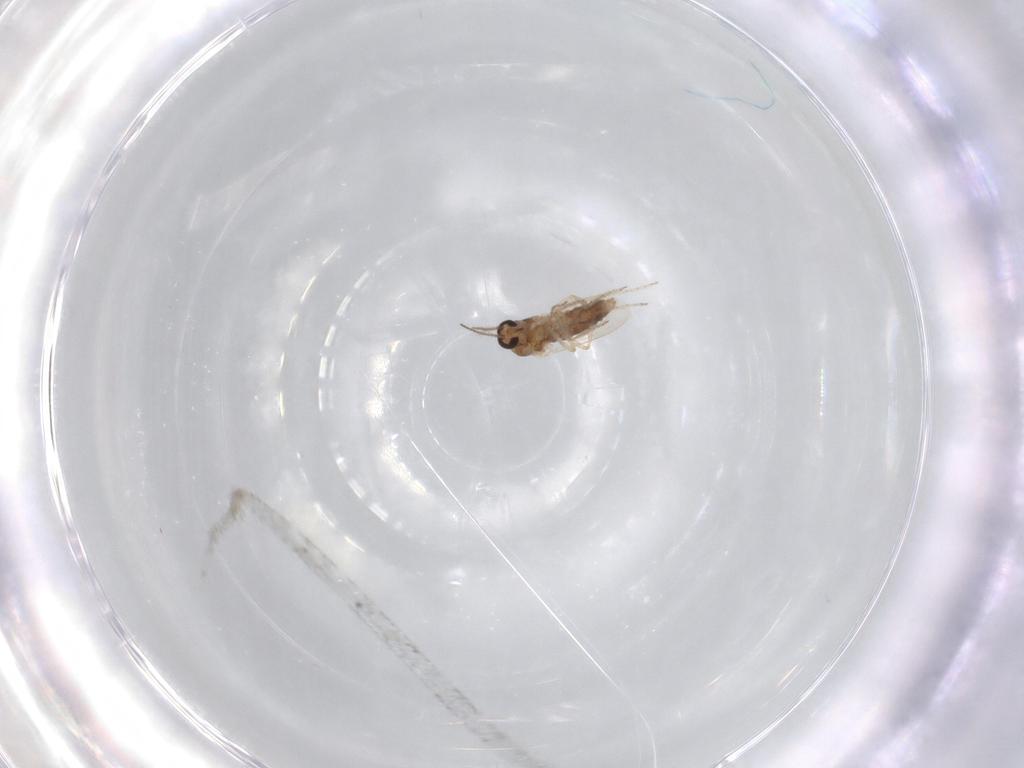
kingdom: Animalia
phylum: Arthropoda
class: Insecta
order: Diptera
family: Ceratopogonidae
